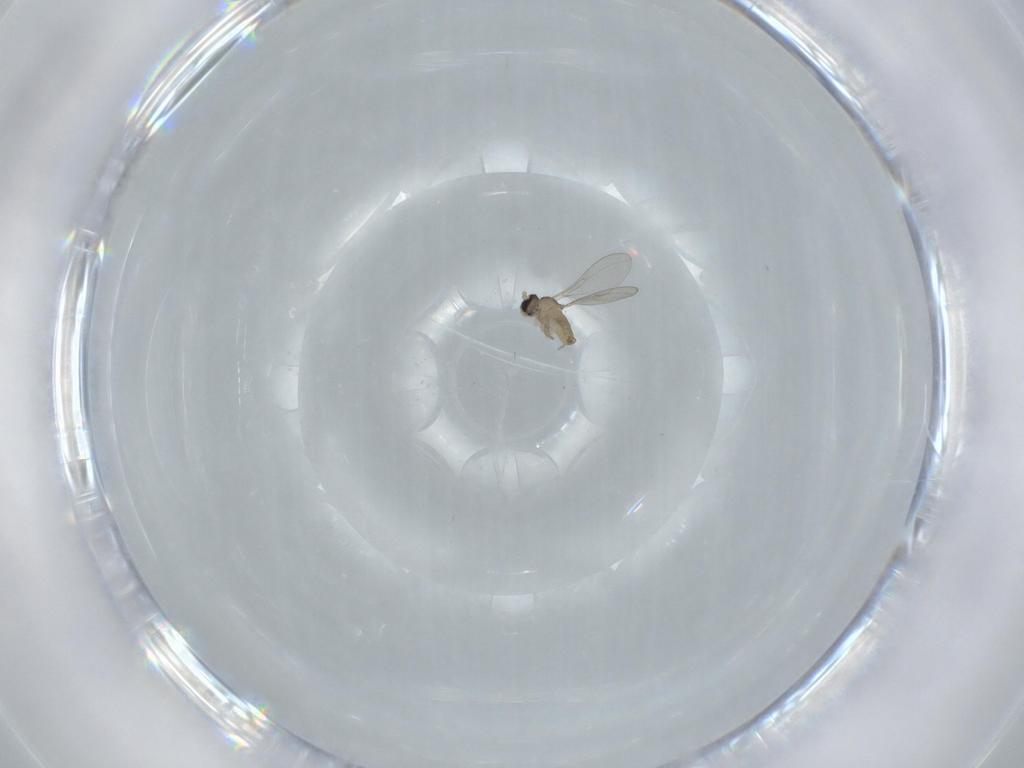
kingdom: Animalia
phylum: Arthropoda
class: Insecta
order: Diptera
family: Cecidomyiidae
